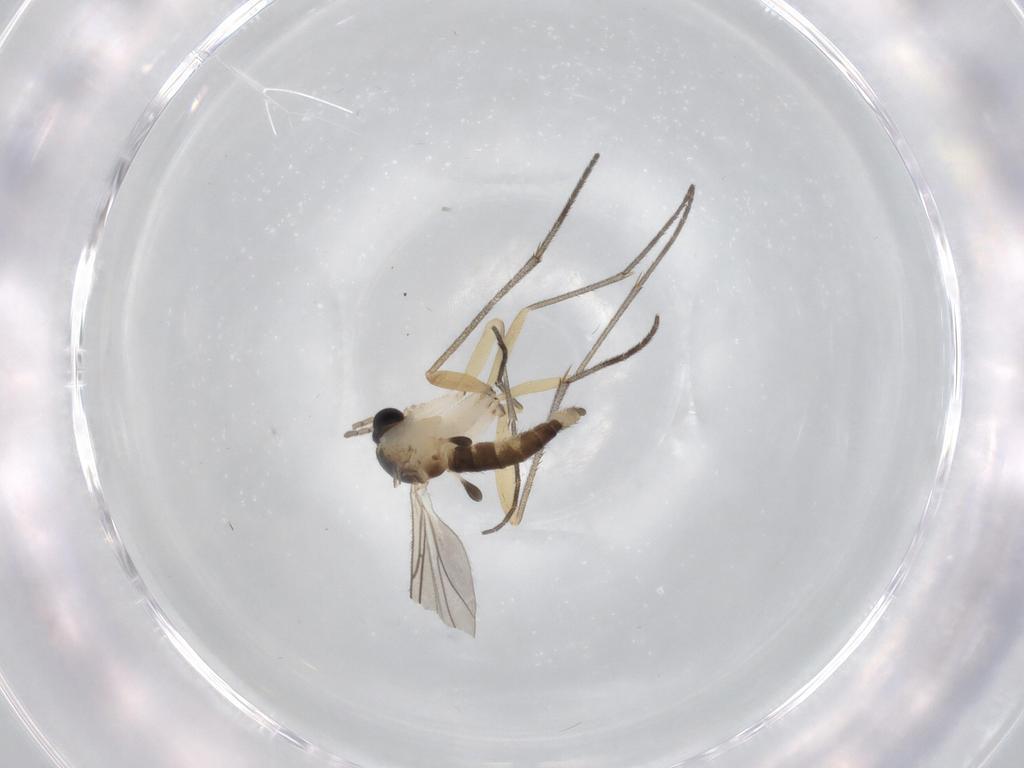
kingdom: Animalia
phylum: Arthropoda
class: Insecta
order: Diptera
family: Sciaridae
